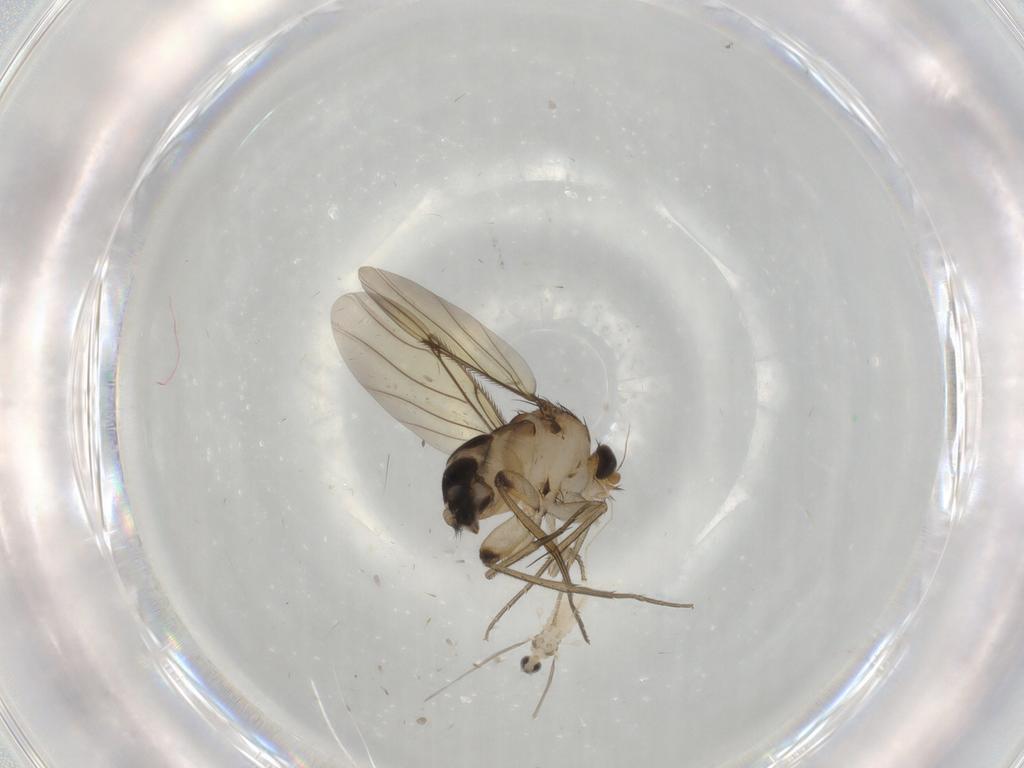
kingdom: Animalia
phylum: Arthropoda
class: Insecta
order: Diptera
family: Phoridae
